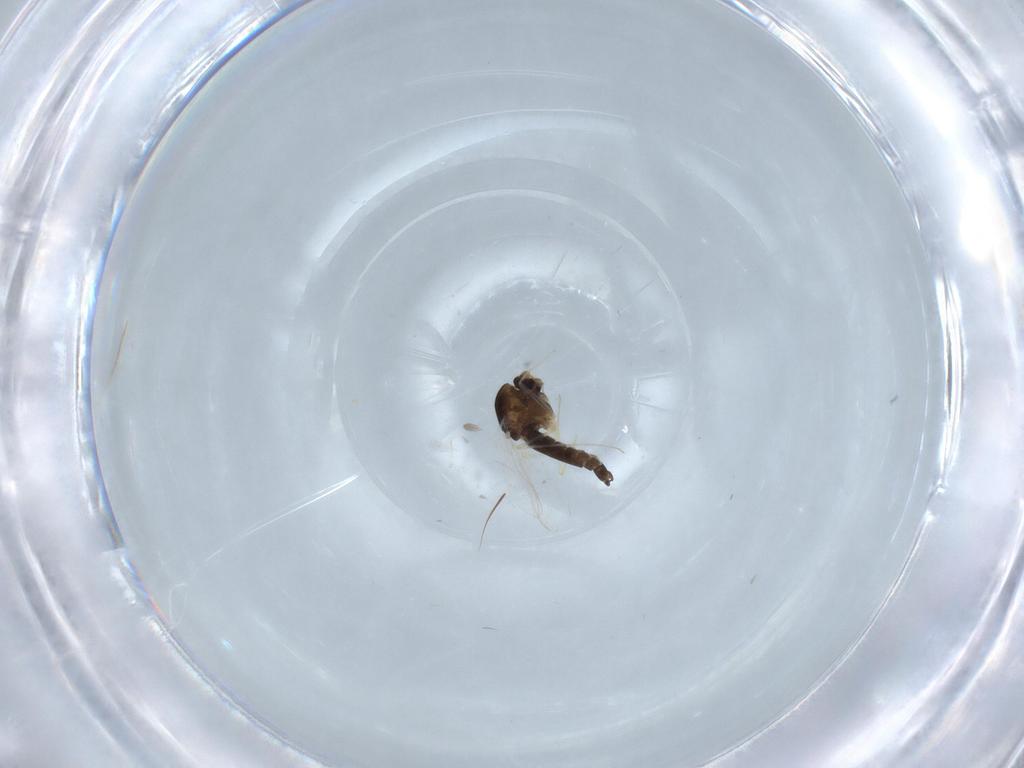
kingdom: Animalia
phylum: Arthropoda
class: Insecta
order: Diptera
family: Chironomidae
